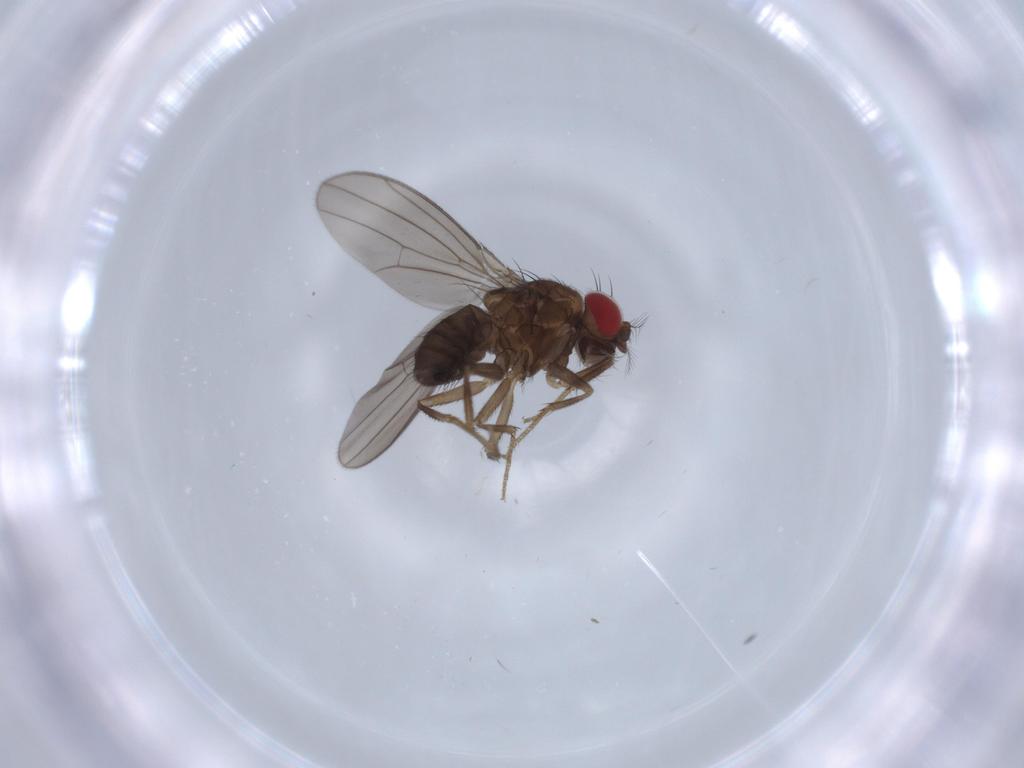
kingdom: Animalia
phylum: Arthropoda
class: Insecta
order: Diptera
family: Drosophilidae
